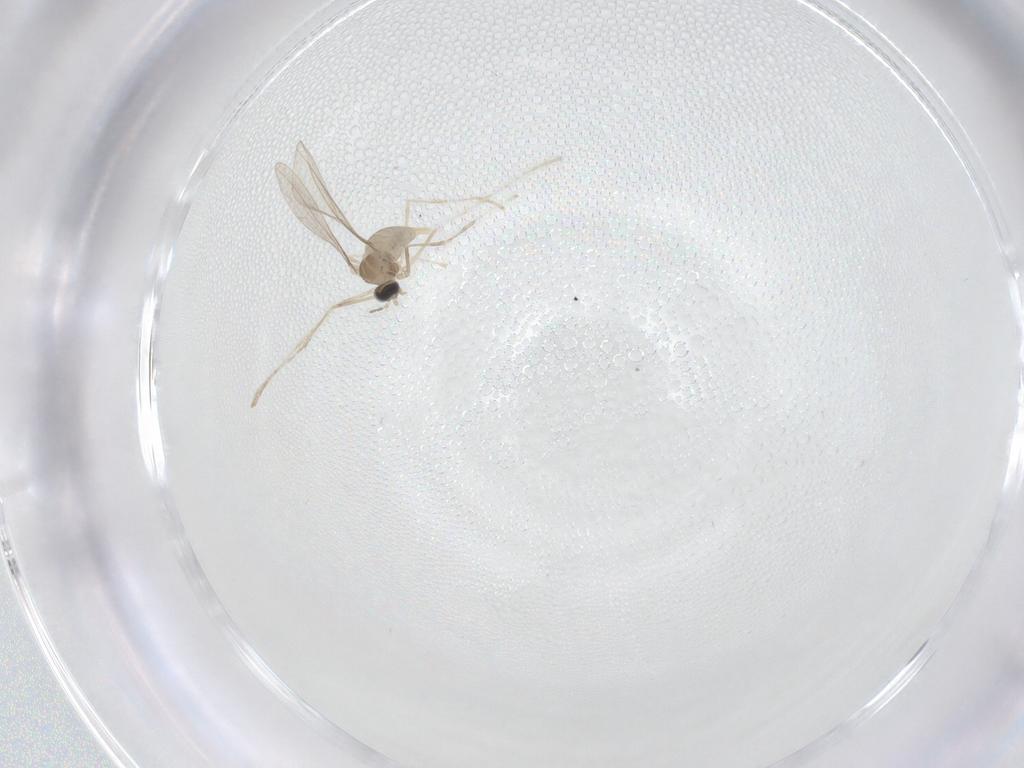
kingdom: Animalia
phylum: Arthropoda
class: Insecta
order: Diptera
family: Cecidomyiidae
